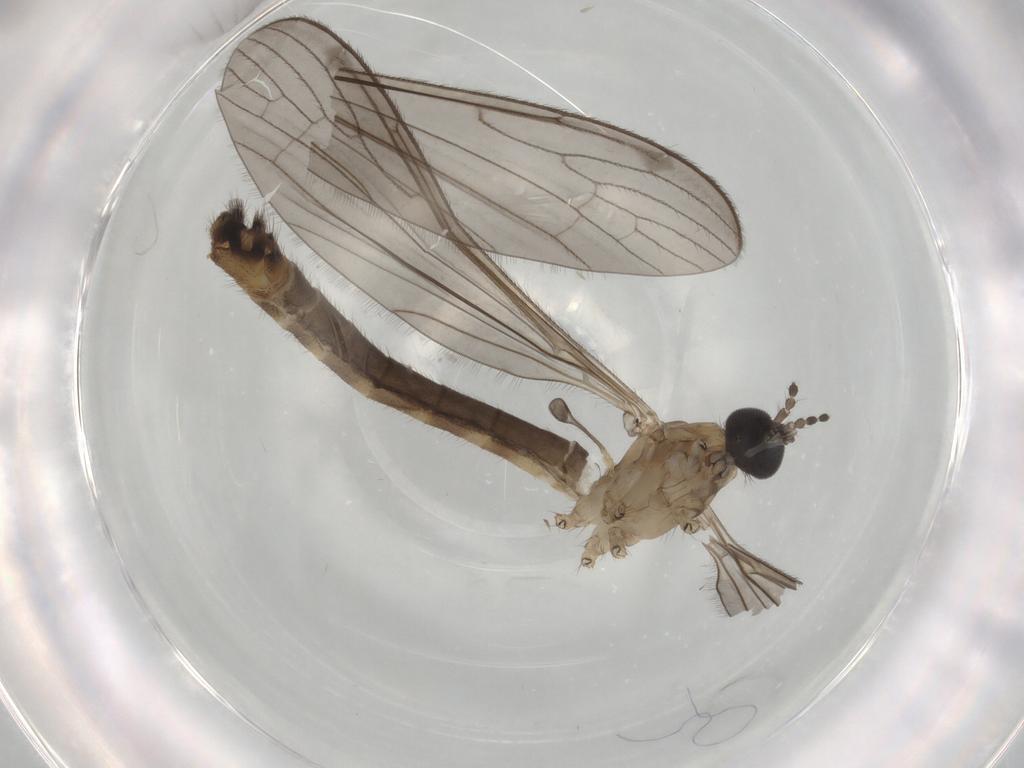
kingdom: Animalia
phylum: Arthropoda
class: Insecta
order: Diptera
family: Limoniidae
